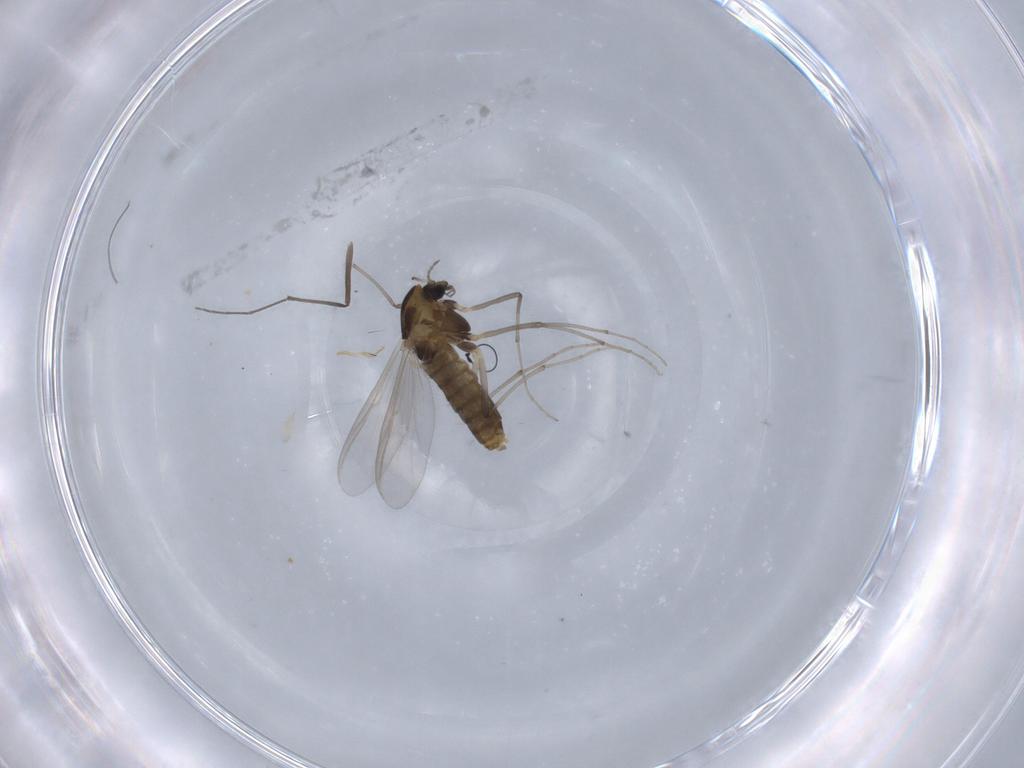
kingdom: Animalia
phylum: Arthropoda
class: Insecta
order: Diptera
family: Chironomidae
